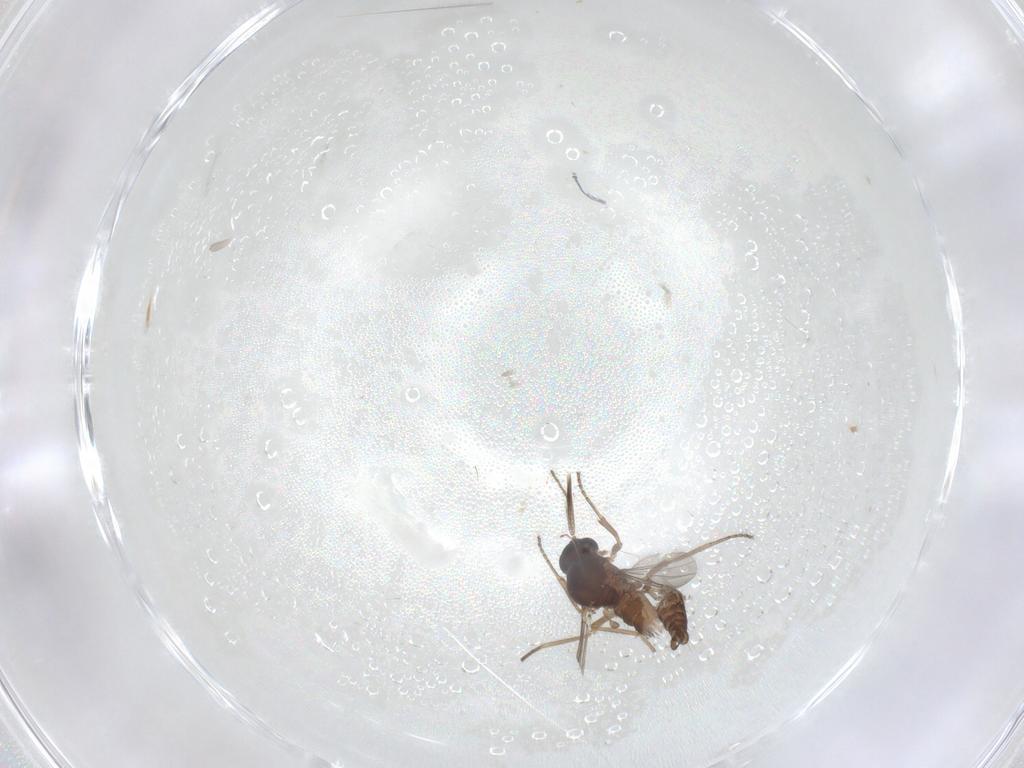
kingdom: Animalia
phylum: Arthropoda
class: Insecta
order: Diptera
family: Ceratopogonidae
